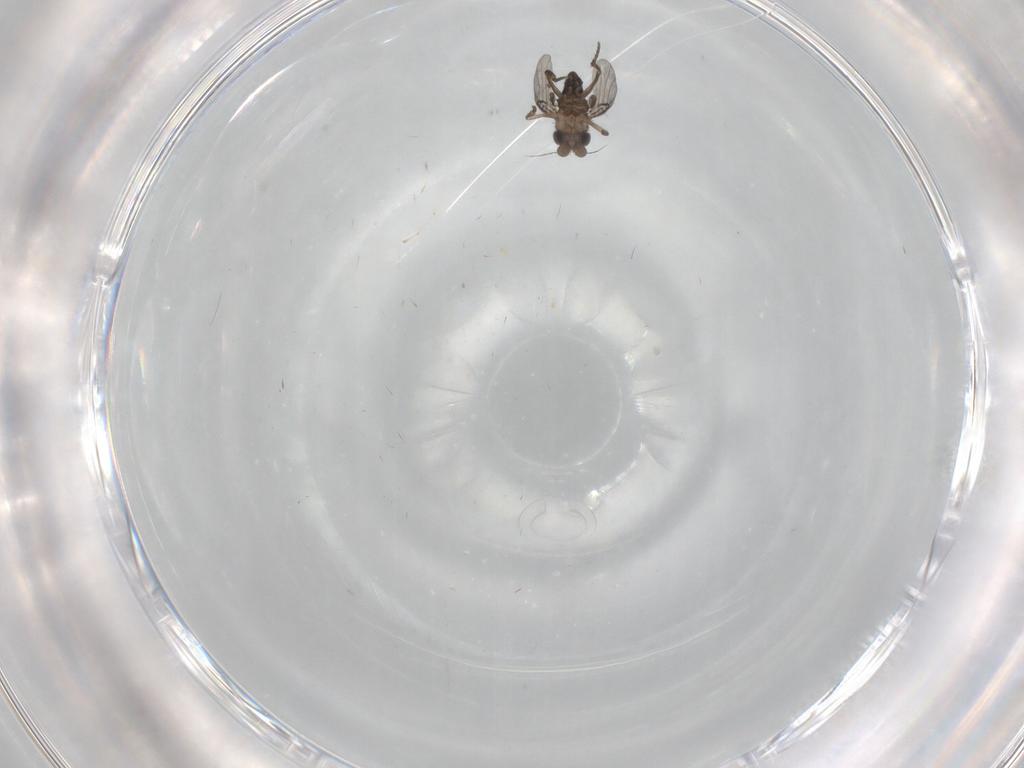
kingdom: Animalia
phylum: Arthropoda
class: Insecta
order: Diptera
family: Cecidomyiidae
